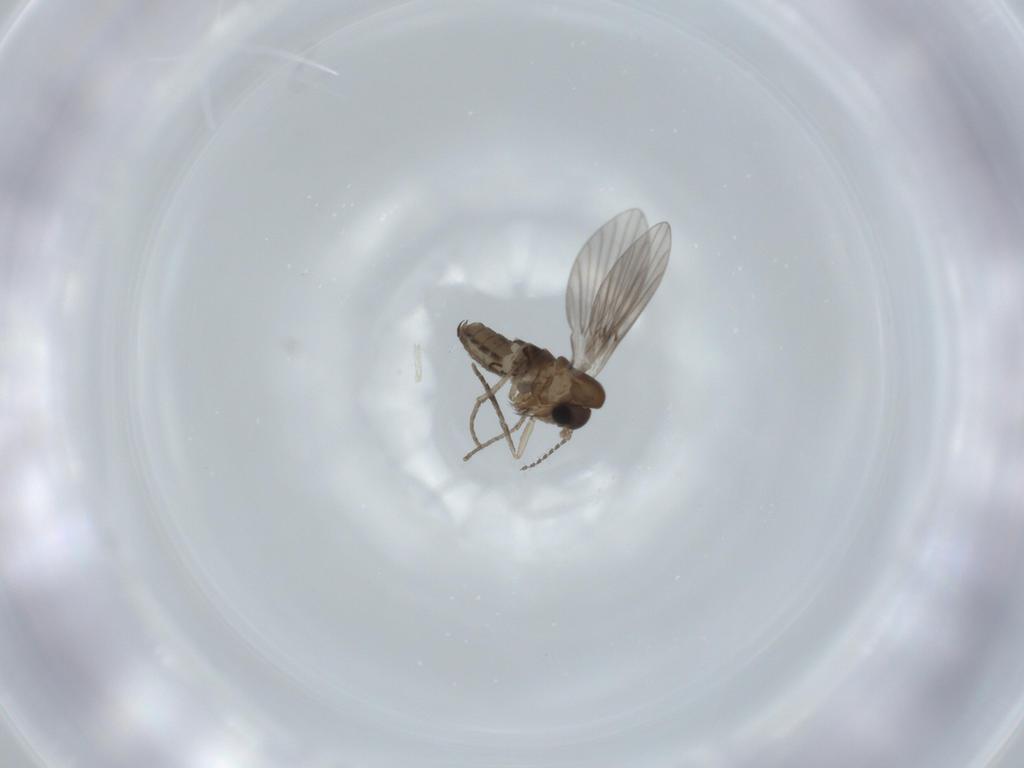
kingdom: Animalia
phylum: Arthropoda
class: Insecta
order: Diptera
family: Psychodidae
